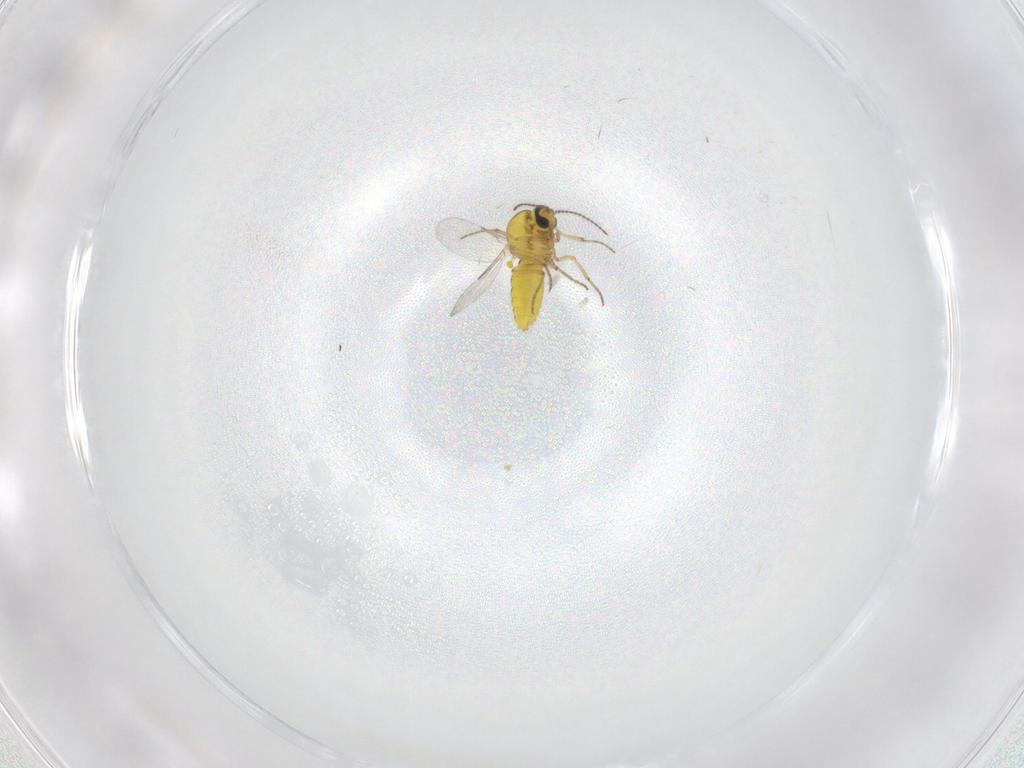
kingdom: Animalia
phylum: Arthropoda
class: Insecta
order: Diptera
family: Ceratopogonidae
